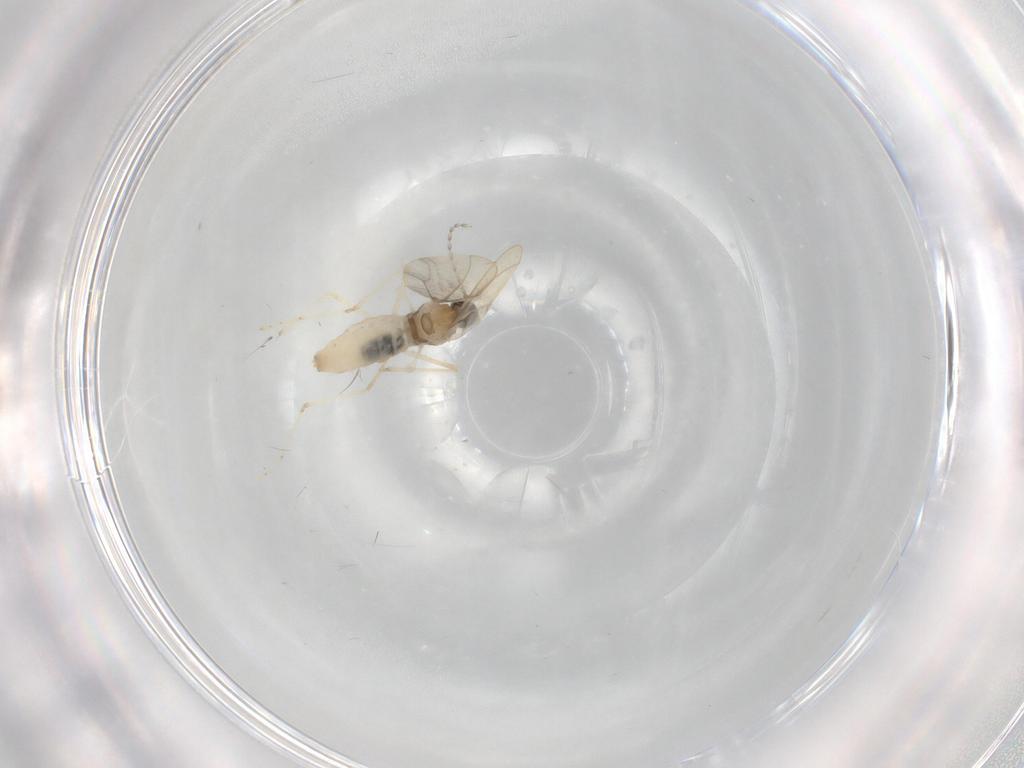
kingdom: Animalia
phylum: Arthropoda
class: Insecta
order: Diptera
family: Cecidomyiidae
